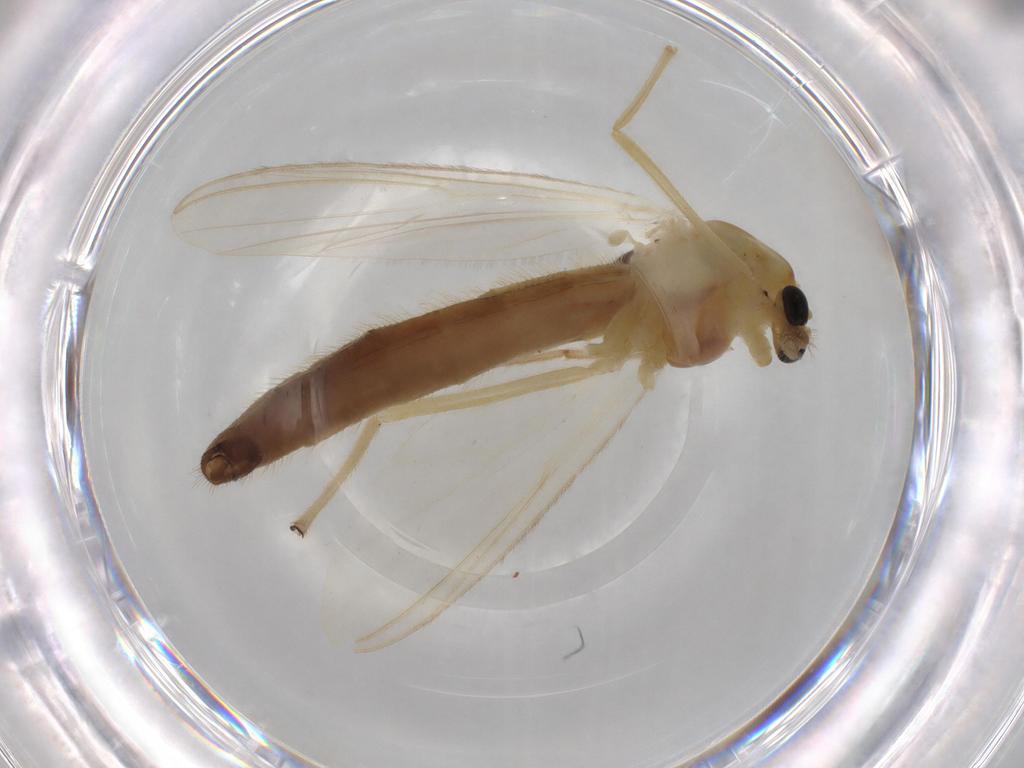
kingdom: Animalia
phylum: Arthropoda
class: Insecta
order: Diptera
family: Chironomidae
